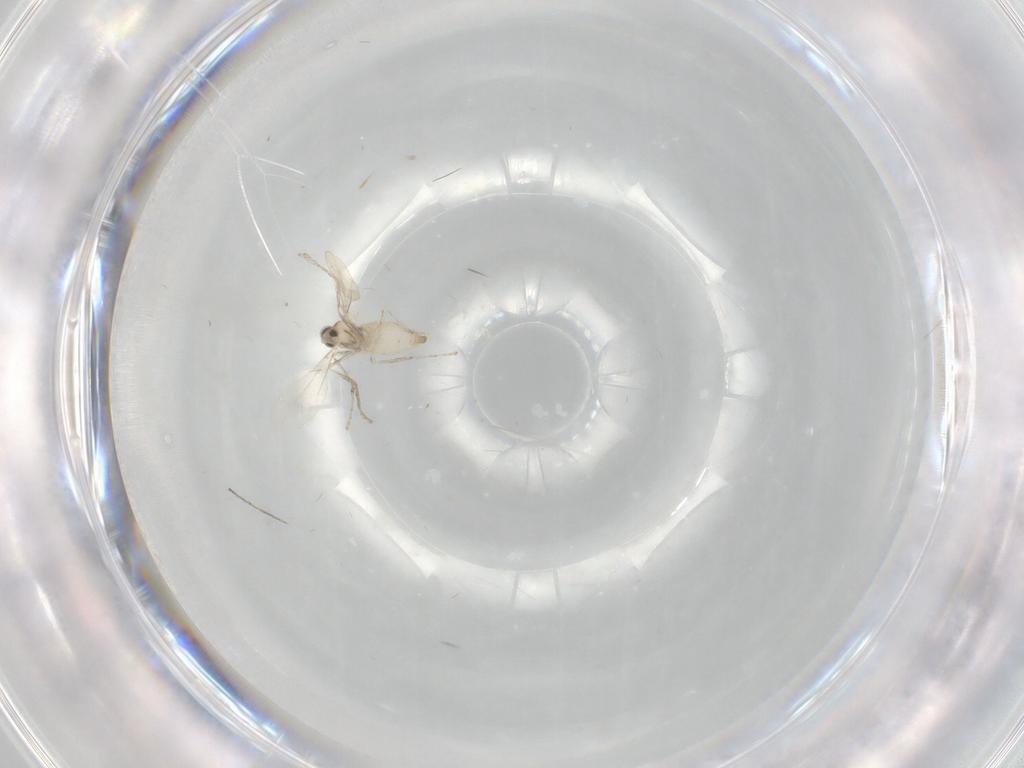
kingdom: Animalia
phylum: Arthropoda
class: Insecta
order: Diptera
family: Cecidomyiidae
